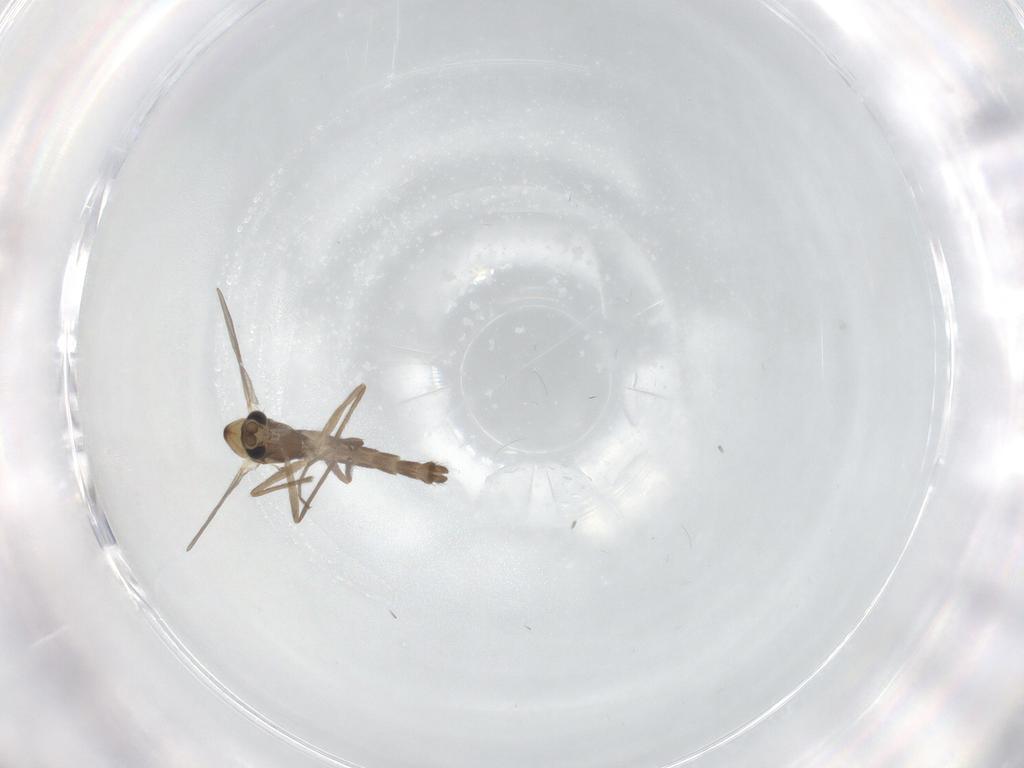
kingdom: Animalia
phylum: Arthropoda
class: Insecta
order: Diptera
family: Chironomidae
